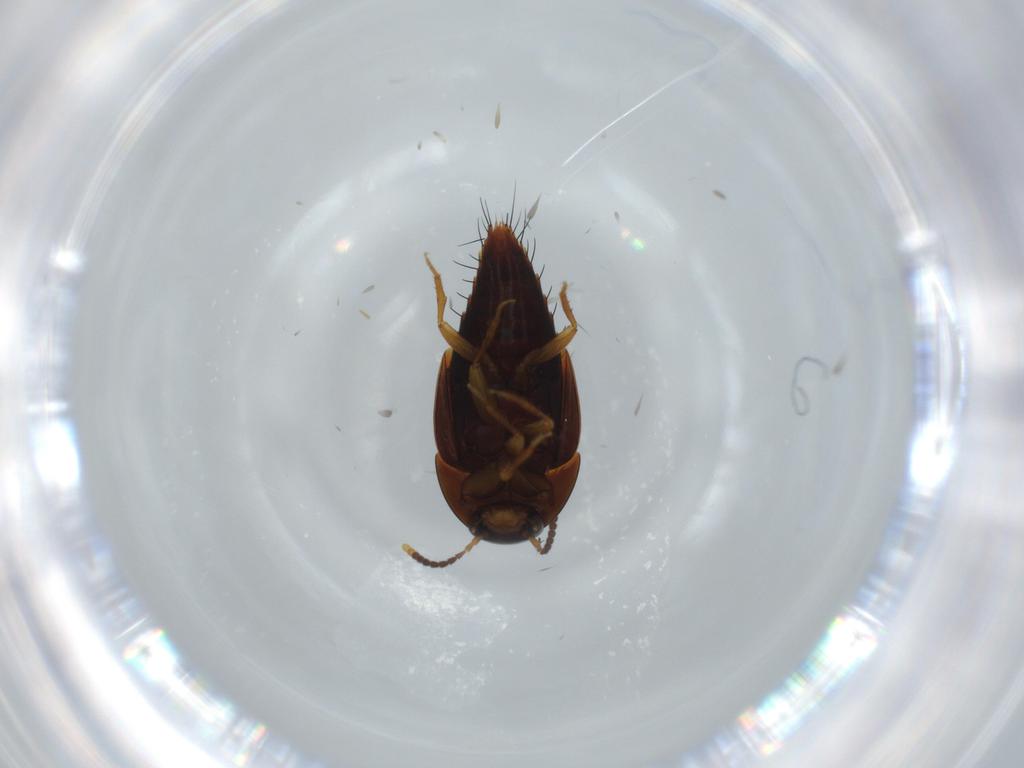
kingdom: Animalia
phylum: Arthropoda
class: Insecta
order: Coleoptera
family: Staphylinidae
